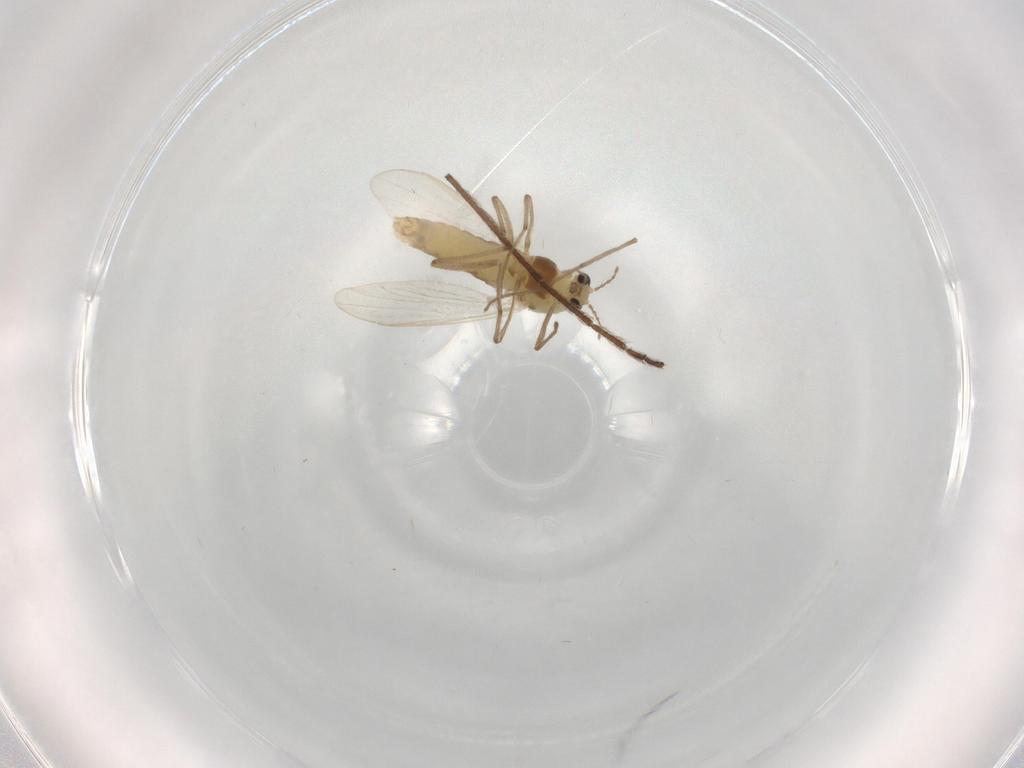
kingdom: Animalia
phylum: Arthropoda
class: Insecta
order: Diptera
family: Chironomidae
